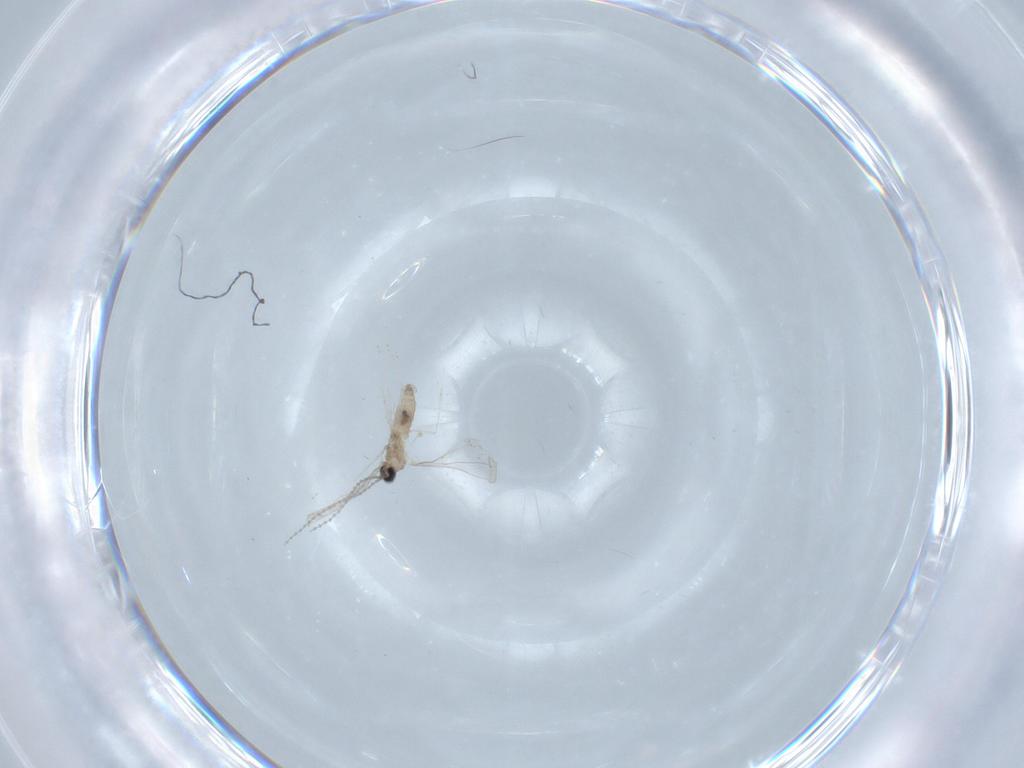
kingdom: Animalia
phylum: Arthropoda
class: Insecta
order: Diptera
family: Cecidomyiidae
